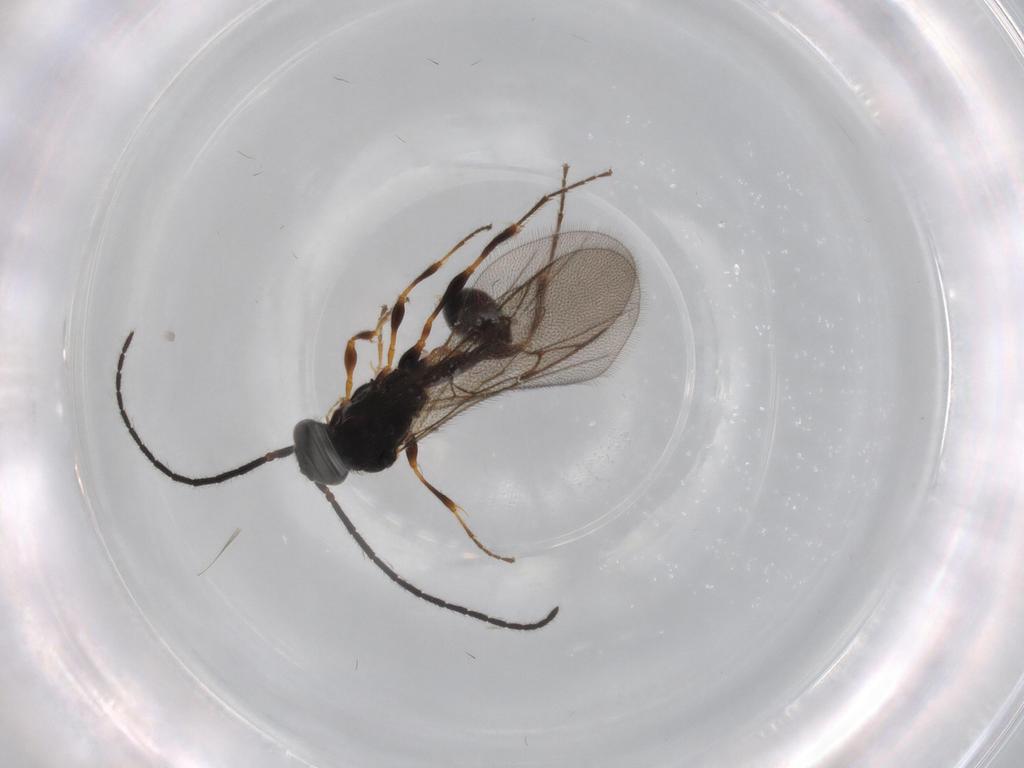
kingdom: Animalia
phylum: Arthropoda
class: Insecta
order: Hymenoptera
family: Diapriidae
